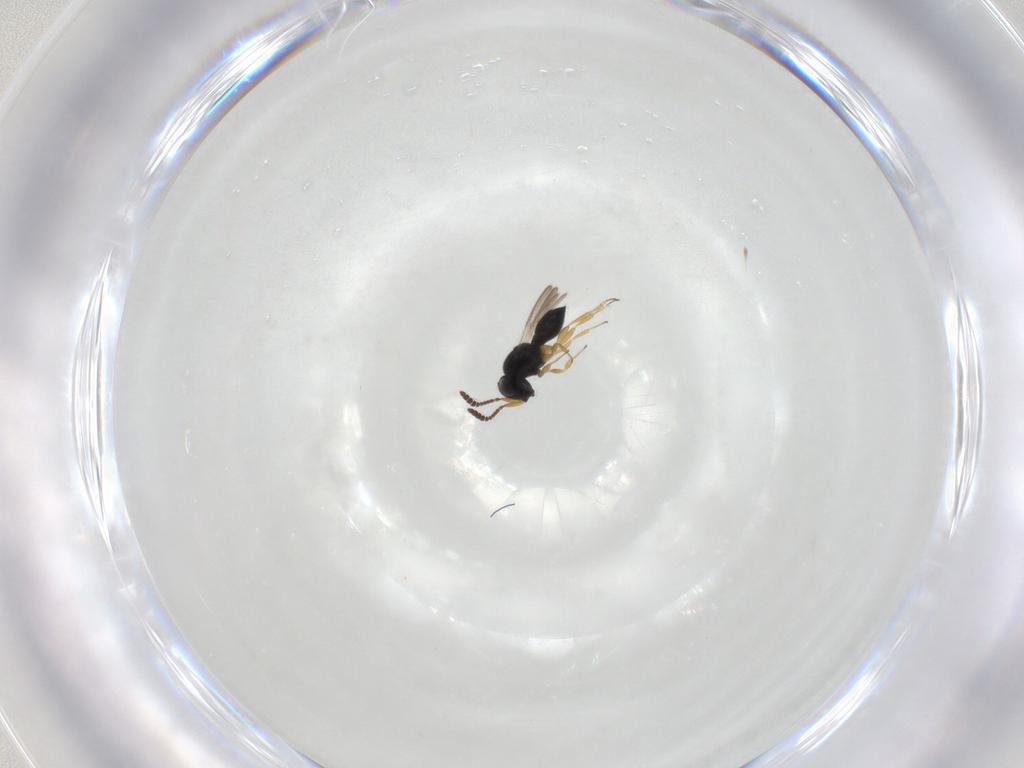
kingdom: Animalia
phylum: Arthropoda
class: Insecta
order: Hymenoptera
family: Scelionidae
